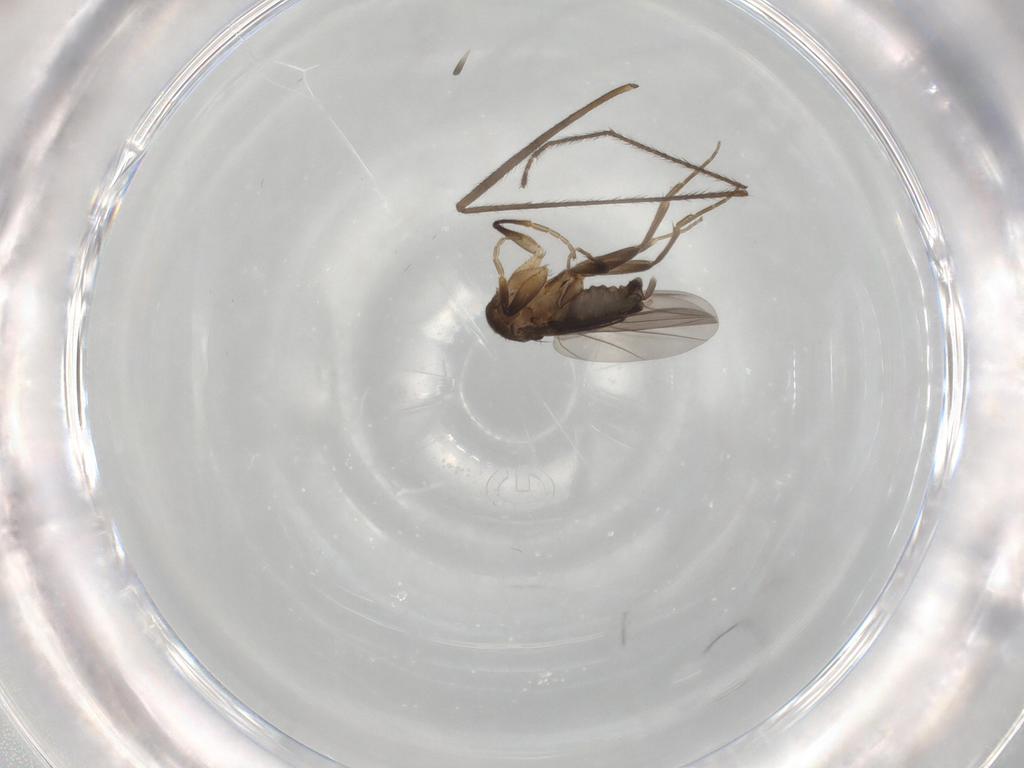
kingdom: Animalia
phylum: Arthropoda
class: Insecta
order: Diptera
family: Phoridae
